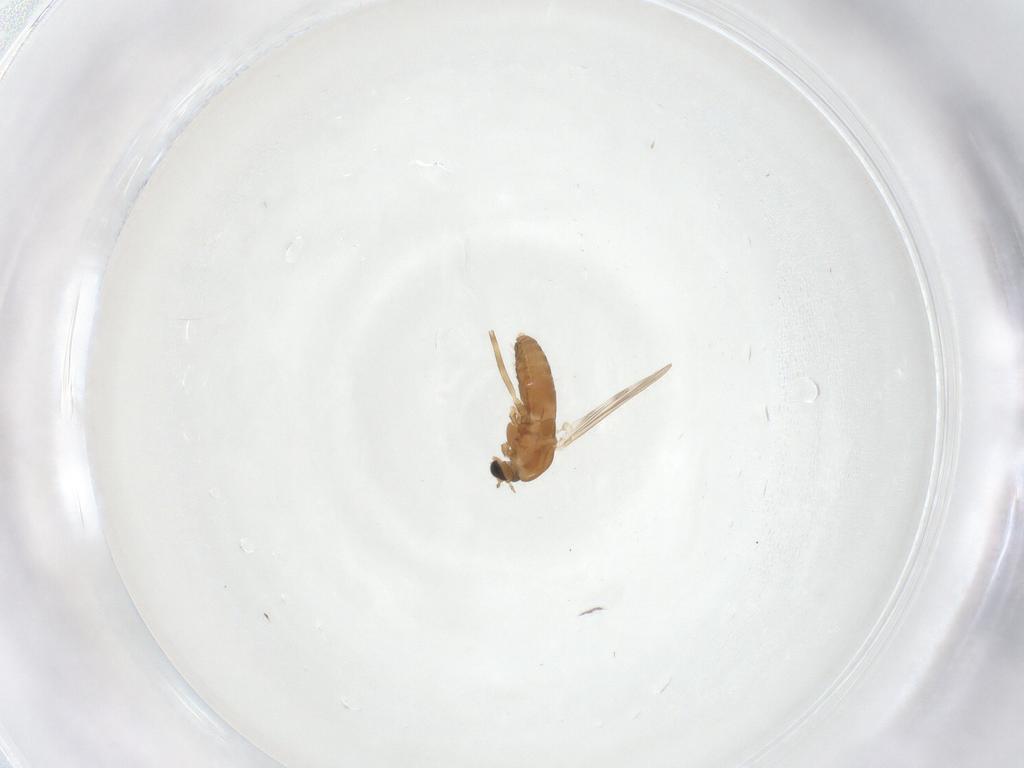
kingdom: Animalia
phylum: Arthropoda
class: Insecta
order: Diptera
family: Chironomidae
